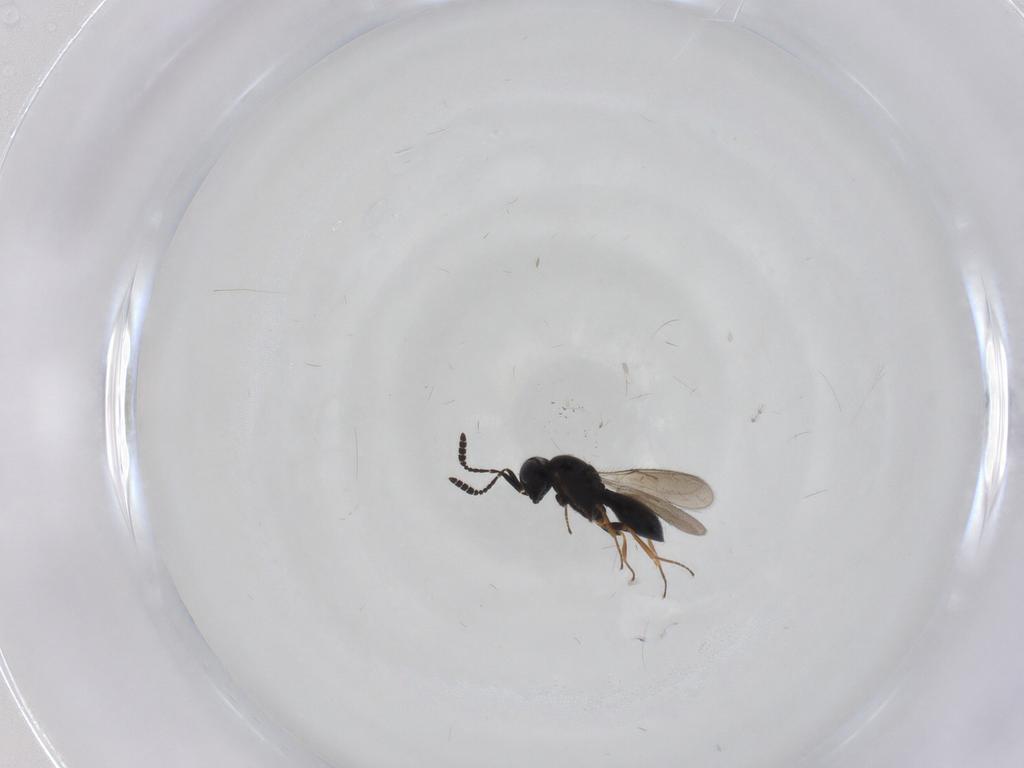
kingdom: Animalia
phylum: Arthropoda
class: Insecta
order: Hymenoptera
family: Scelionidae
